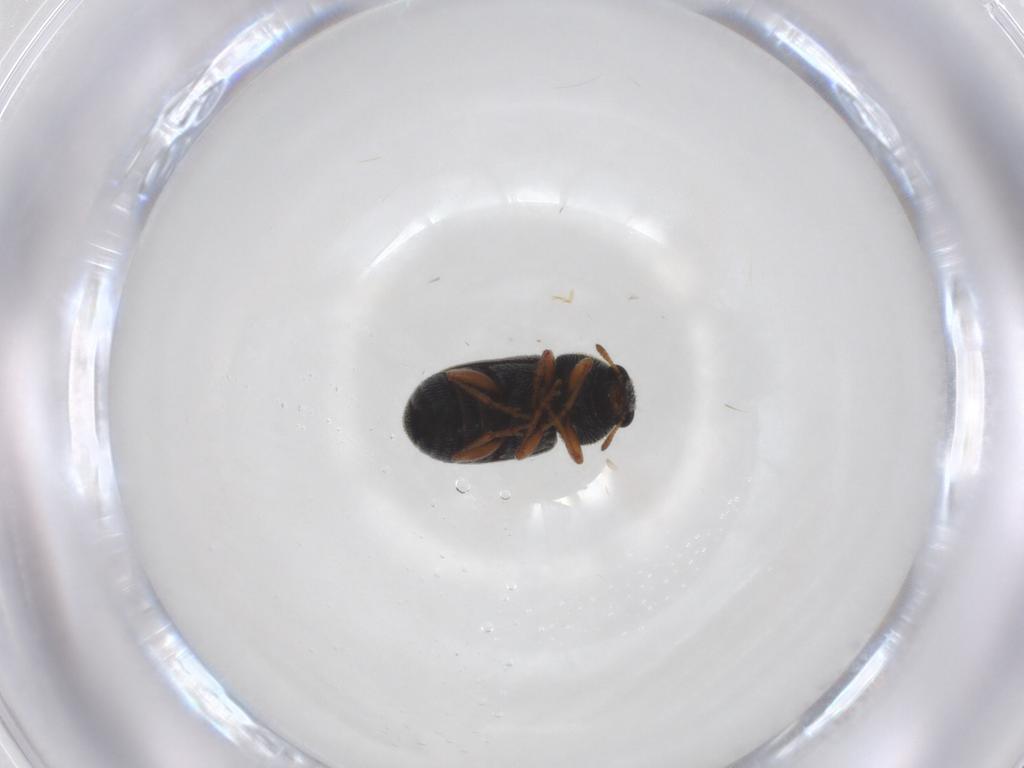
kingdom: Animalia
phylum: Arthropoda
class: Insecta
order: Coleoptera
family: Anthribidae
